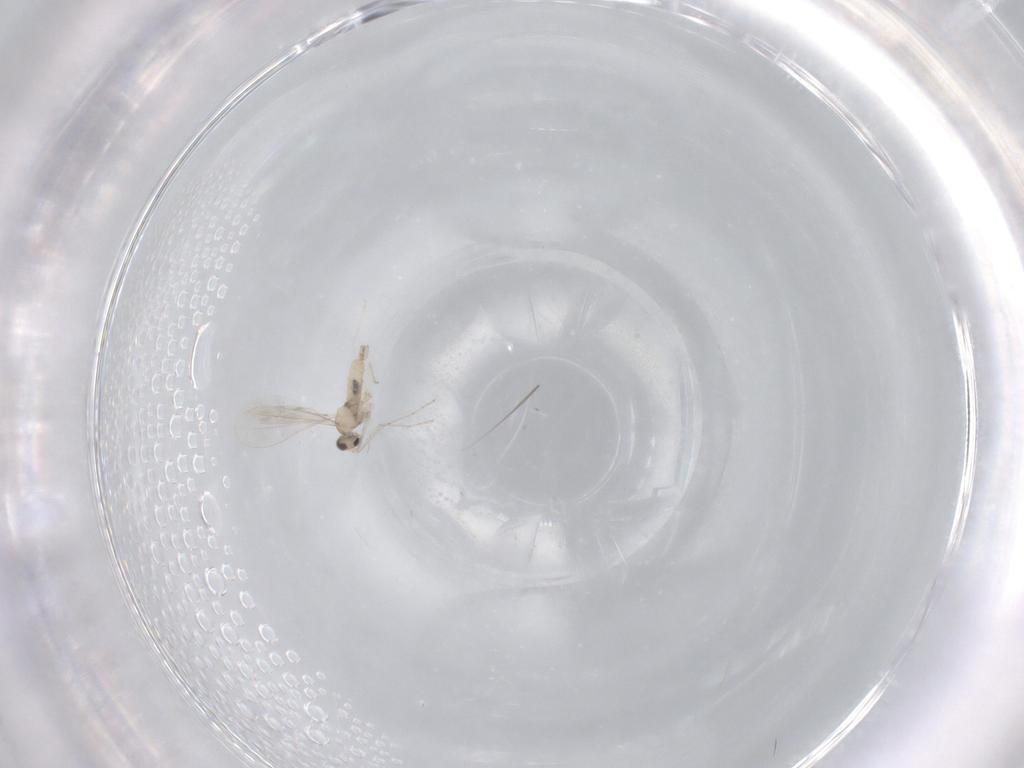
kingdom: Animalia
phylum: Arthropoda
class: Insecta
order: Diptera
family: Cecidomyiidae
